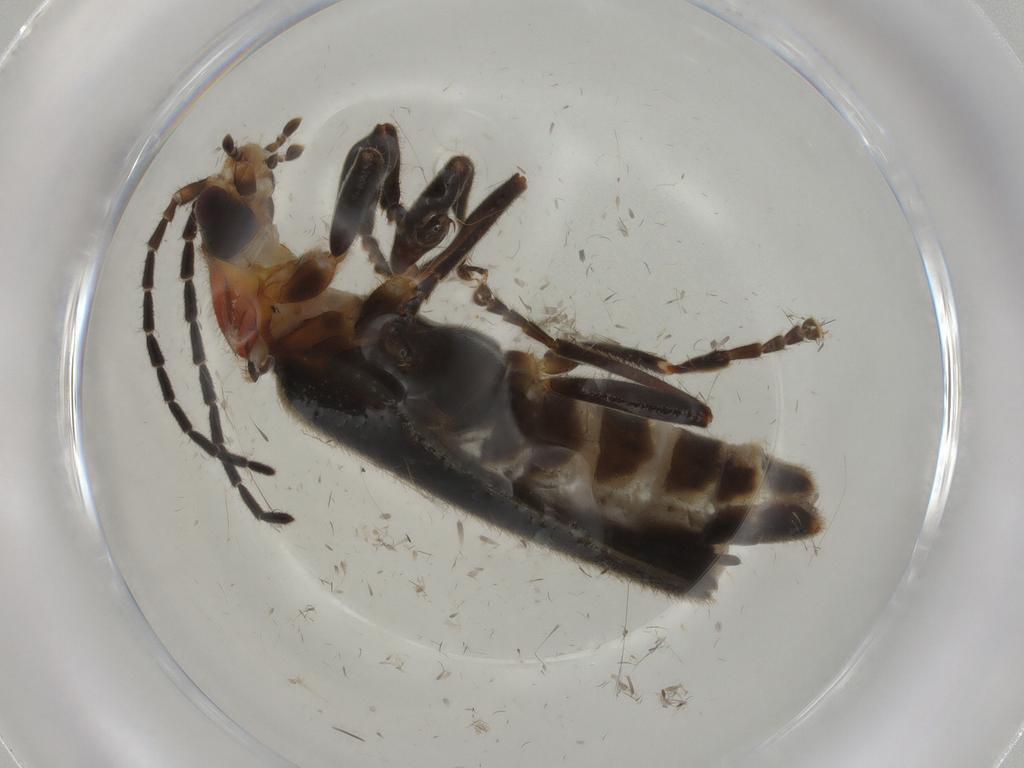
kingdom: Animalia
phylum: Arthropoda
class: Insecta
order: Coleoptera
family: Cantharidae
